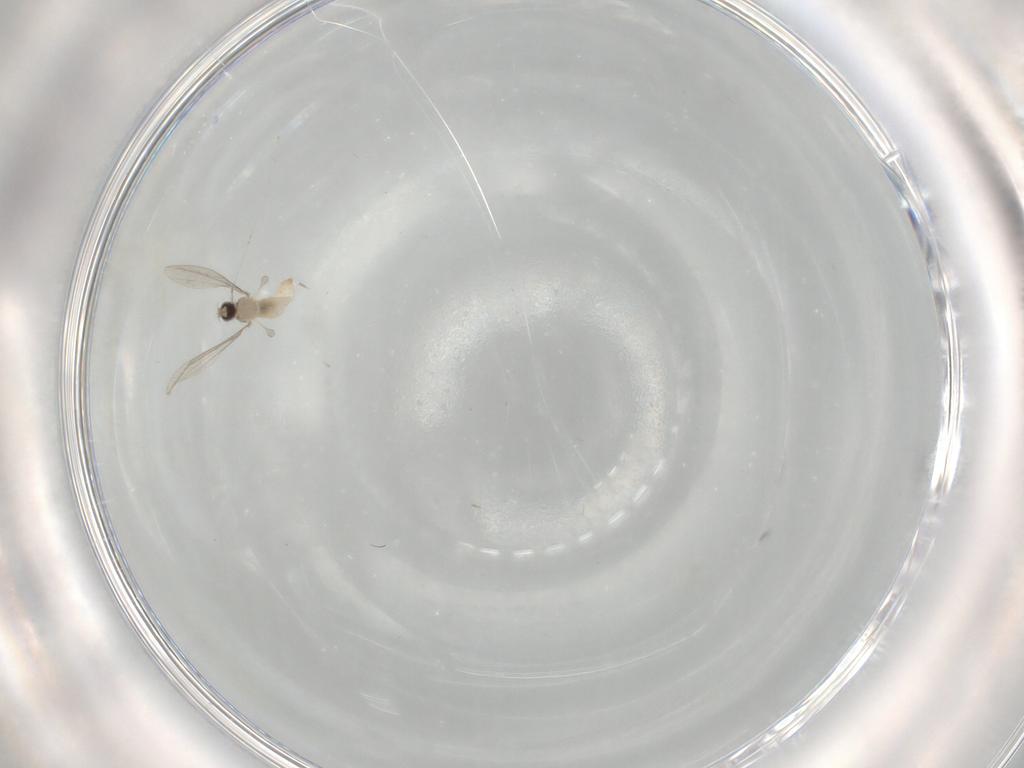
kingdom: Animalia
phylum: Arthropoda
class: Insecta
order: Diptera
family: Cecidomyiidae
